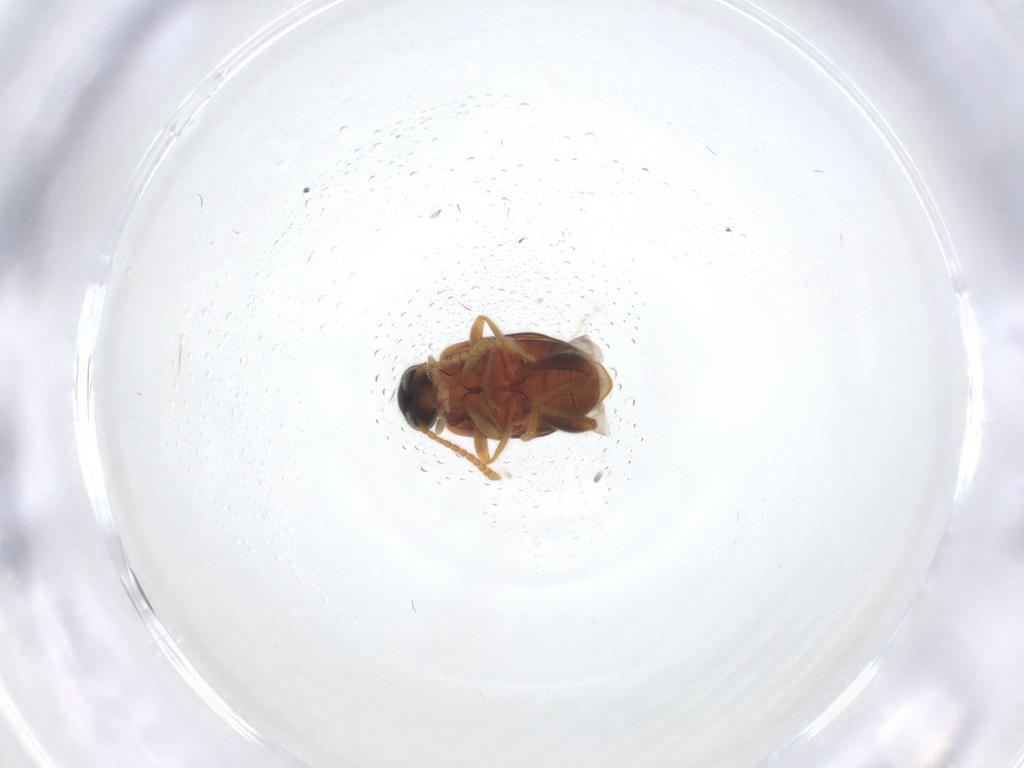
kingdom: Animalia
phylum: Arthropoda
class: Insecta
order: Coleoptera
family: Aderidae
